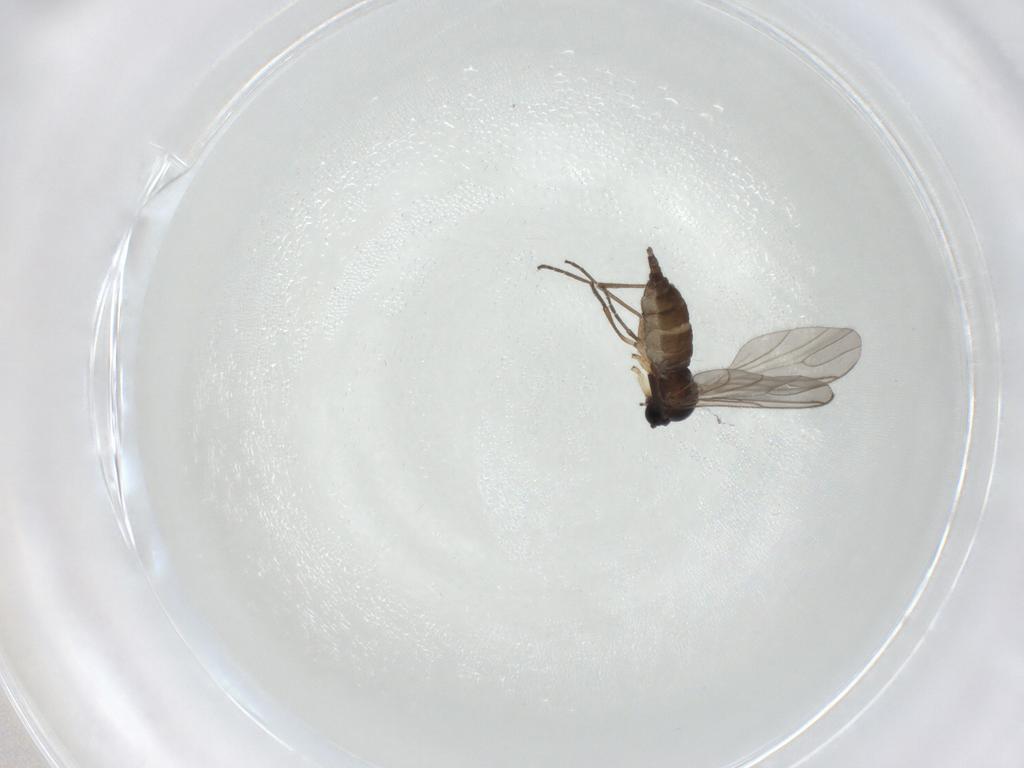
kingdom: Animalia
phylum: Arthropoda
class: Insecta
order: Diptera
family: Sciaridae
